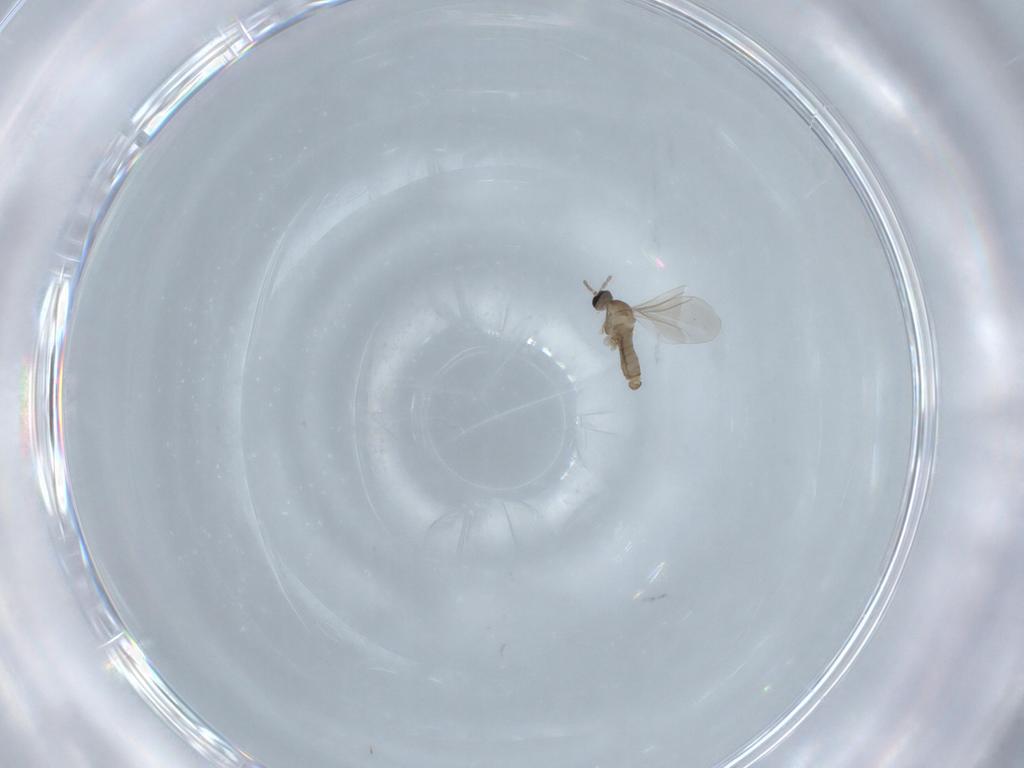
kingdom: Animalia
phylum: Arthropoda
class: Insecta
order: Diptera
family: Cecidomyiidae
